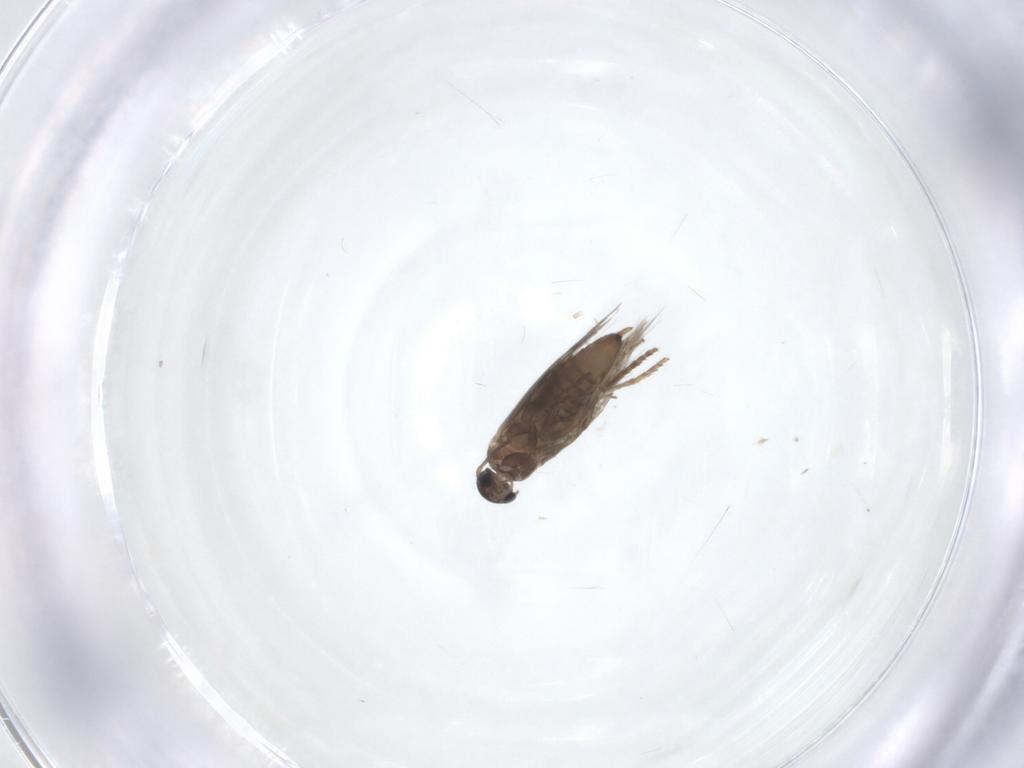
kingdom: Animalia
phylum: Arthropoda
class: Insecta
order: Lepidoptera
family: Heliozelidae
